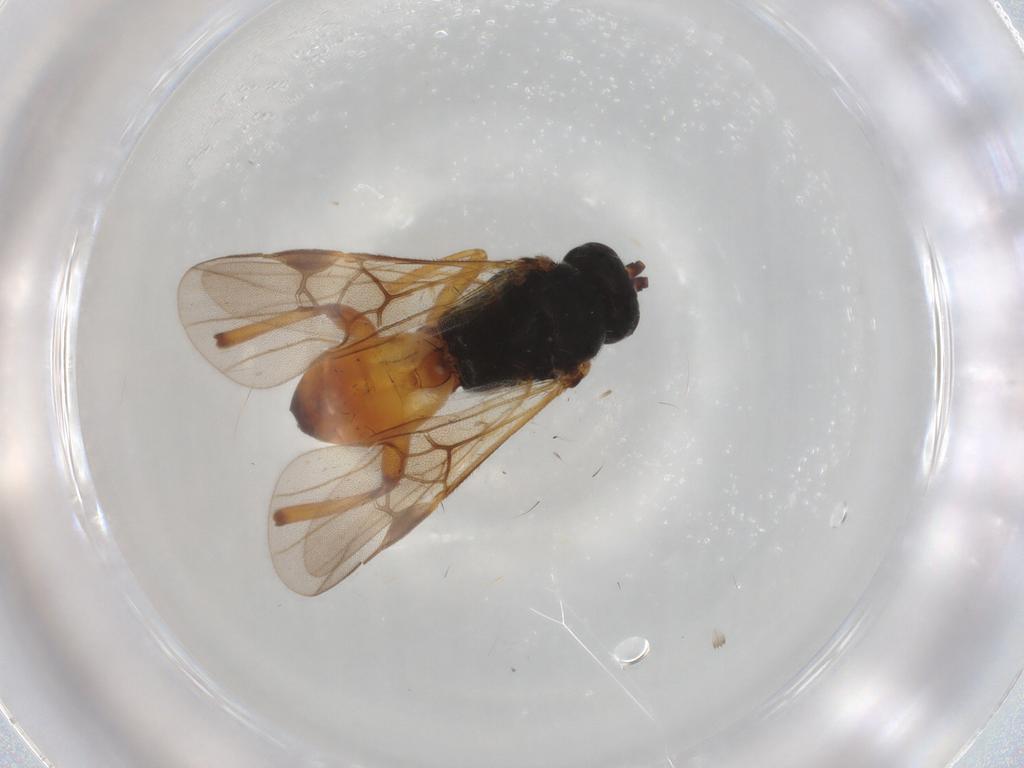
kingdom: Animalia
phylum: Arthropoda
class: Insecta
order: Hymenoptera
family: Braconidae
